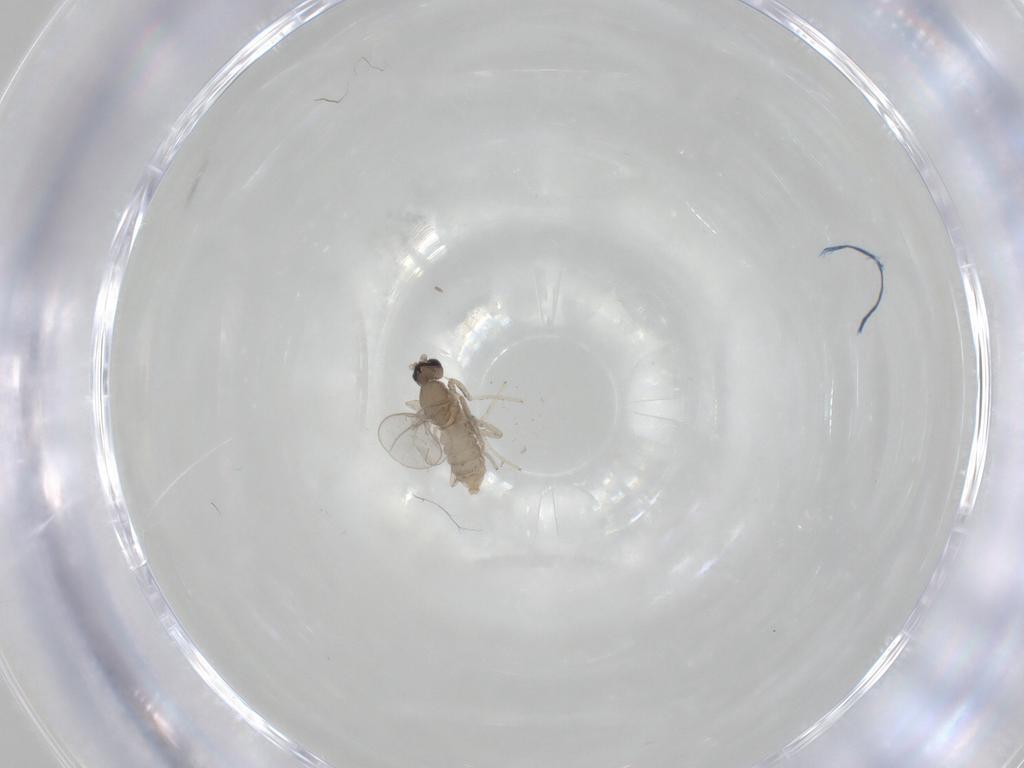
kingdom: Animalia
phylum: Arthropoda
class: Insecta
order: Diptera
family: Cecidomyiidae
